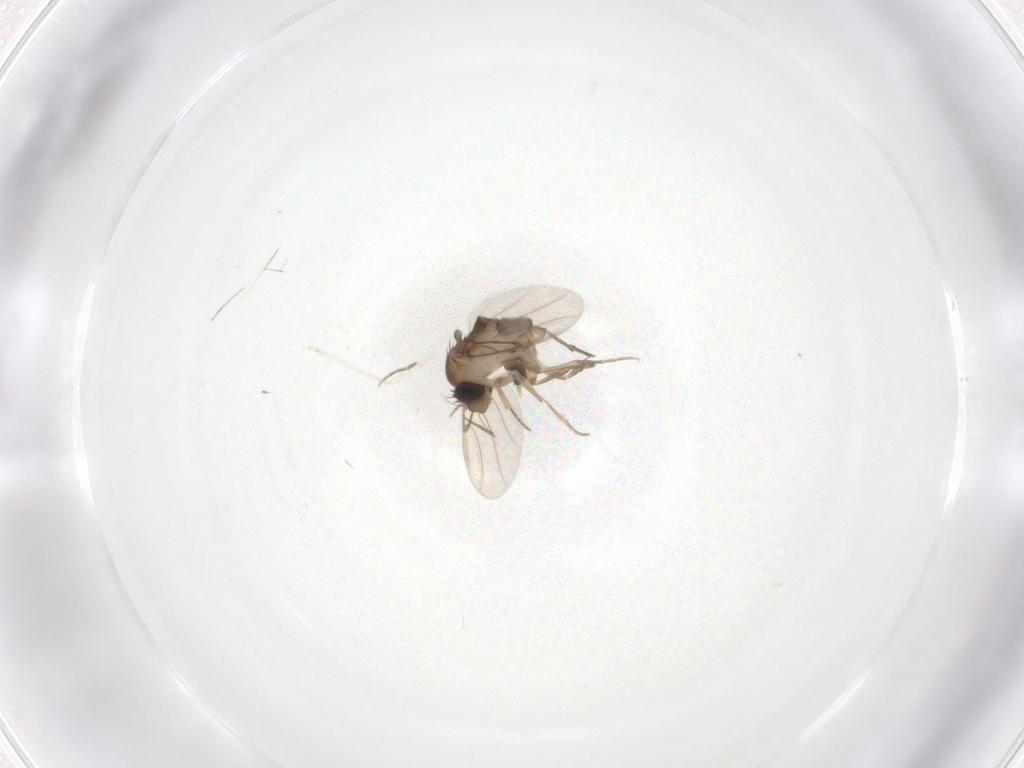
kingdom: Animalia
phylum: Arthropoda
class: Insecta
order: Diptera
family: Phoridae
